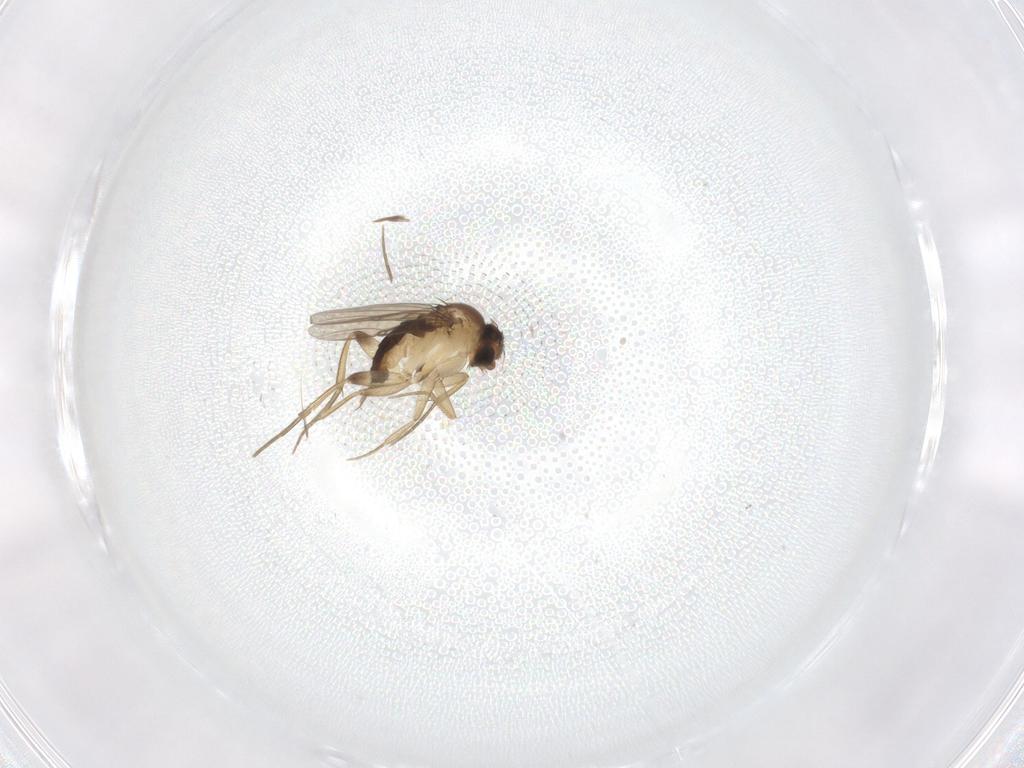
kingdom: Animalia
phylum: Arthropoda
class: Insecta
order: Diptera
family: Phoridae
